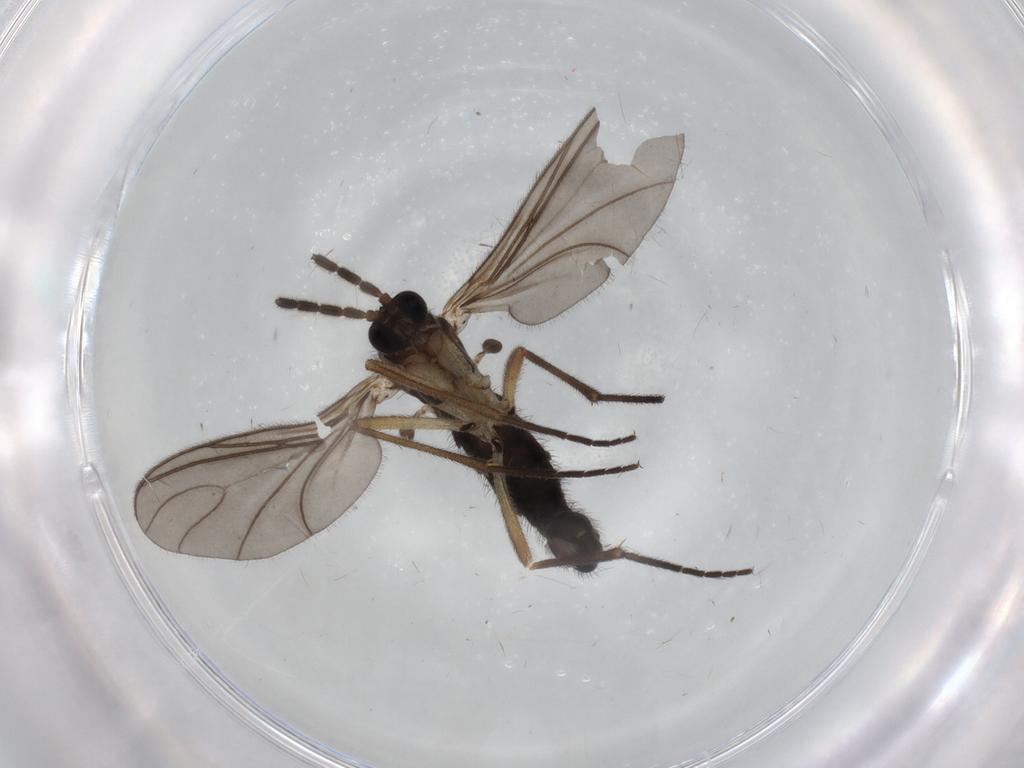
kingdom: Animalia
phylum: Arthropoda
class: Insecta
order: Diptera
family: Sciaridae
